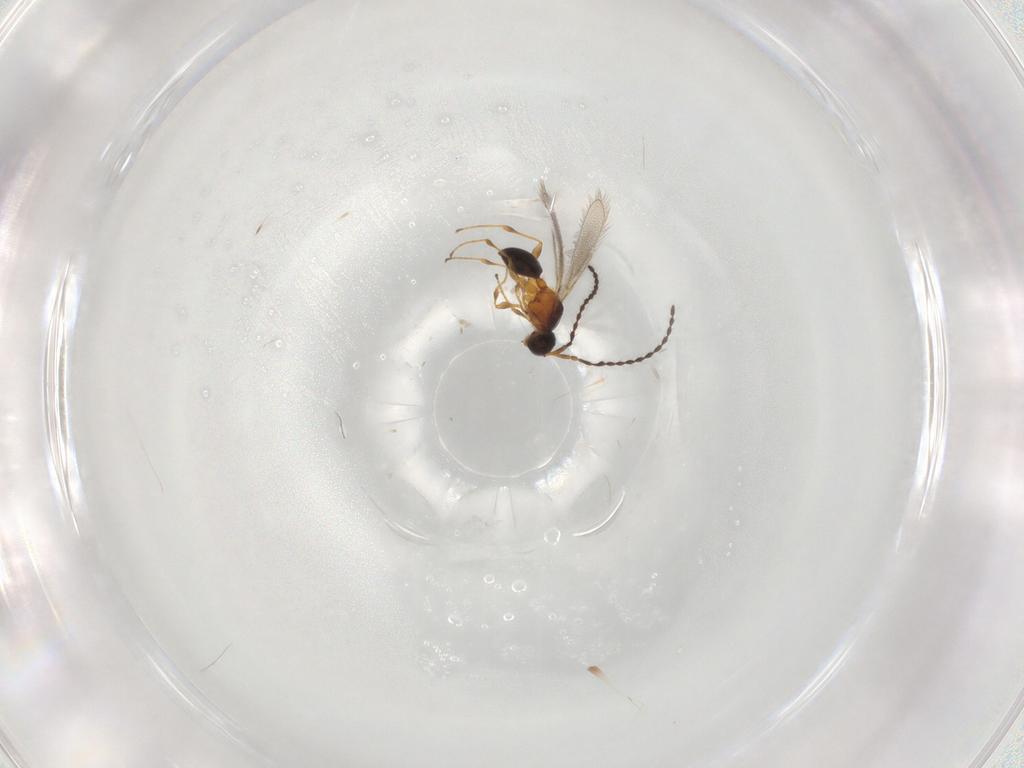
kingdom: Animalia
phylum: Arthropoda
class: Insecta
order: Hymenoptera
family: Diapriidae
